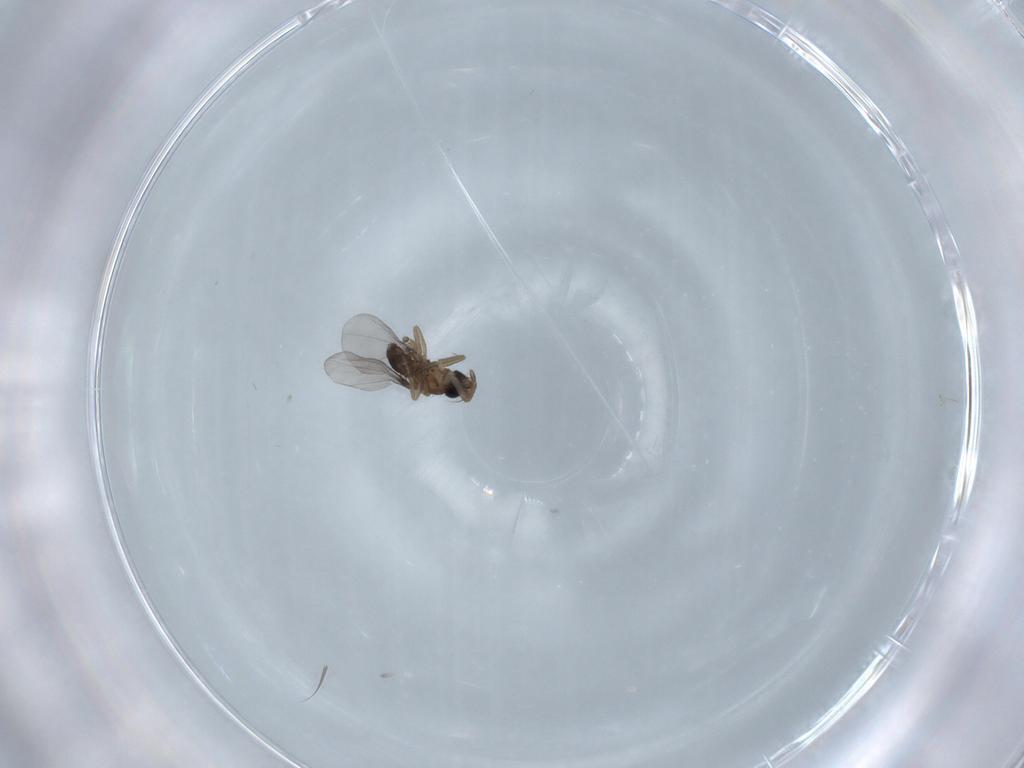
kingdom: Animalia
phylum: Arthropoda
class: Insecta
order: Diptera
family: Phoridae
